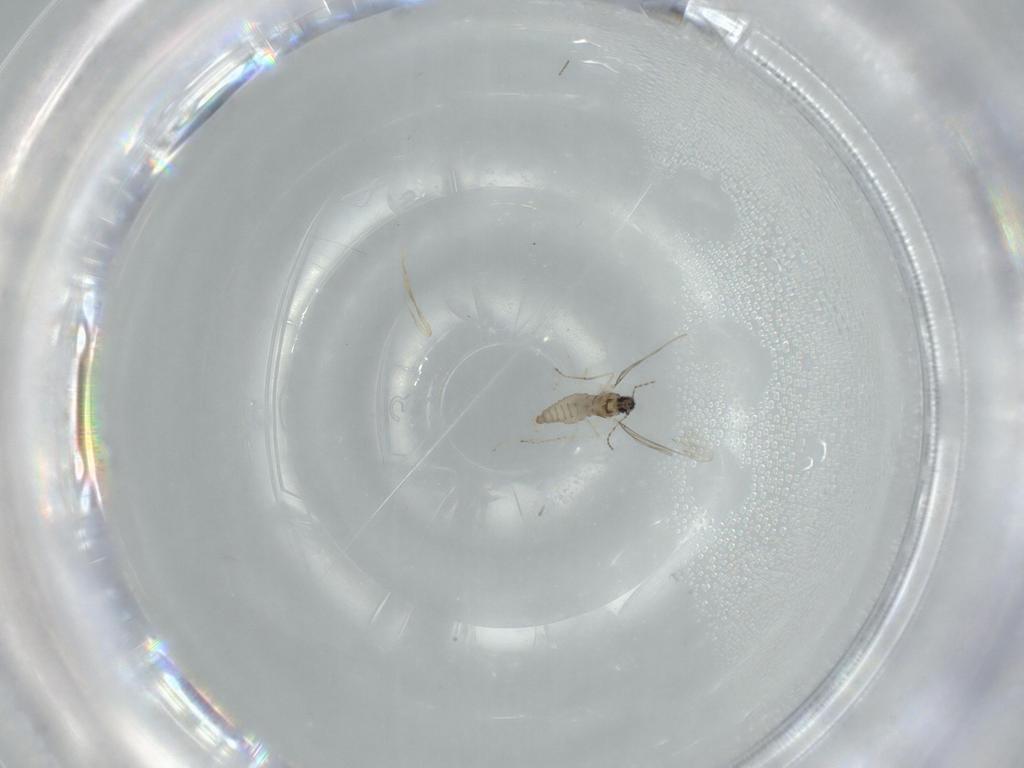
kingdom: Animalia
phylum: Arthropoda
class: Insecta
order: Diptera
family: Cecidomyiidae
